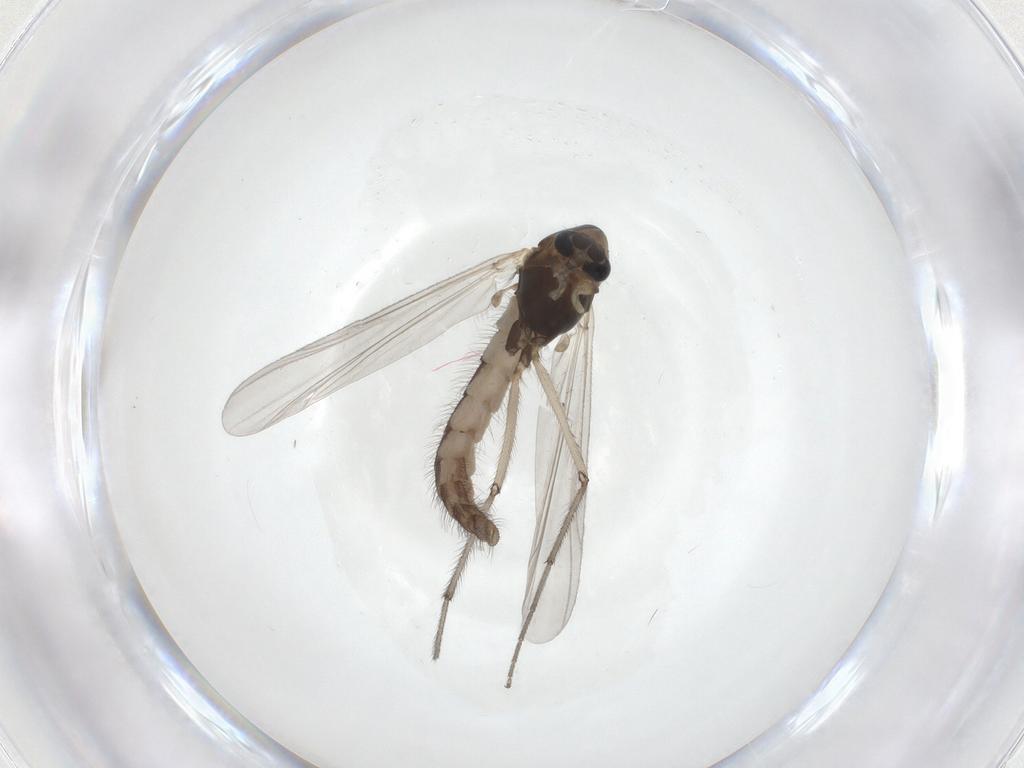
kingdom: Animalia
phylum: Arthropoda
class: Insecta
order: Diptera
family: Chironomidae
